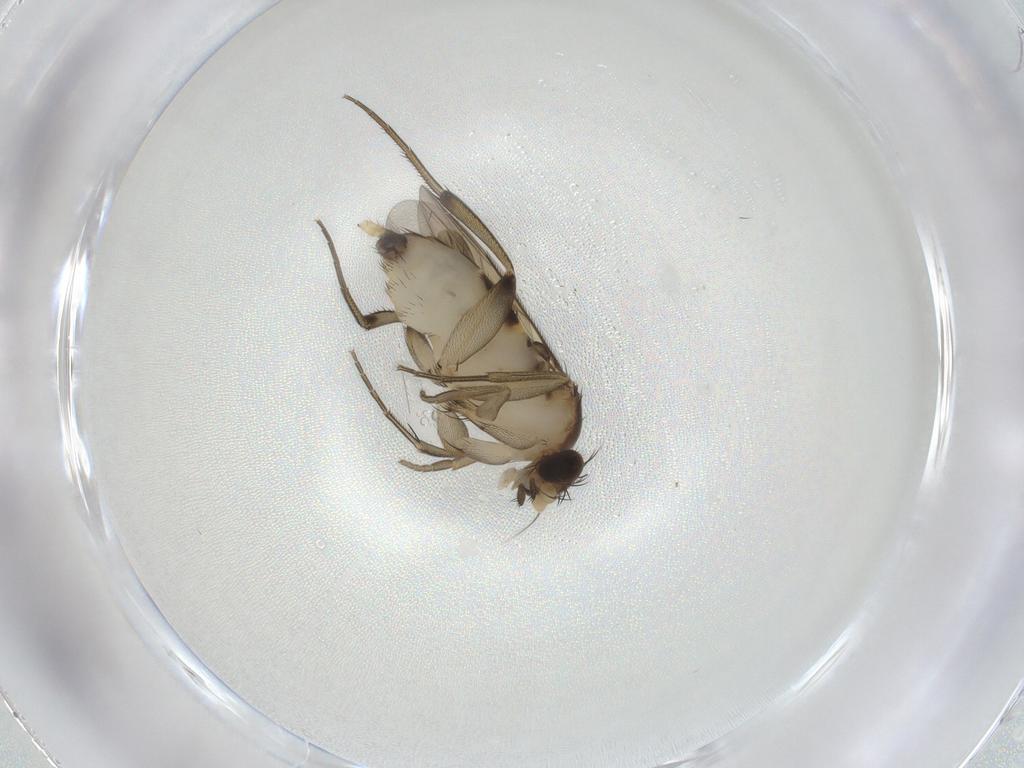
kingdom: Animalia
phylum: Arthropoda
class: Insecta
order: Diptera
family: Phoridae
